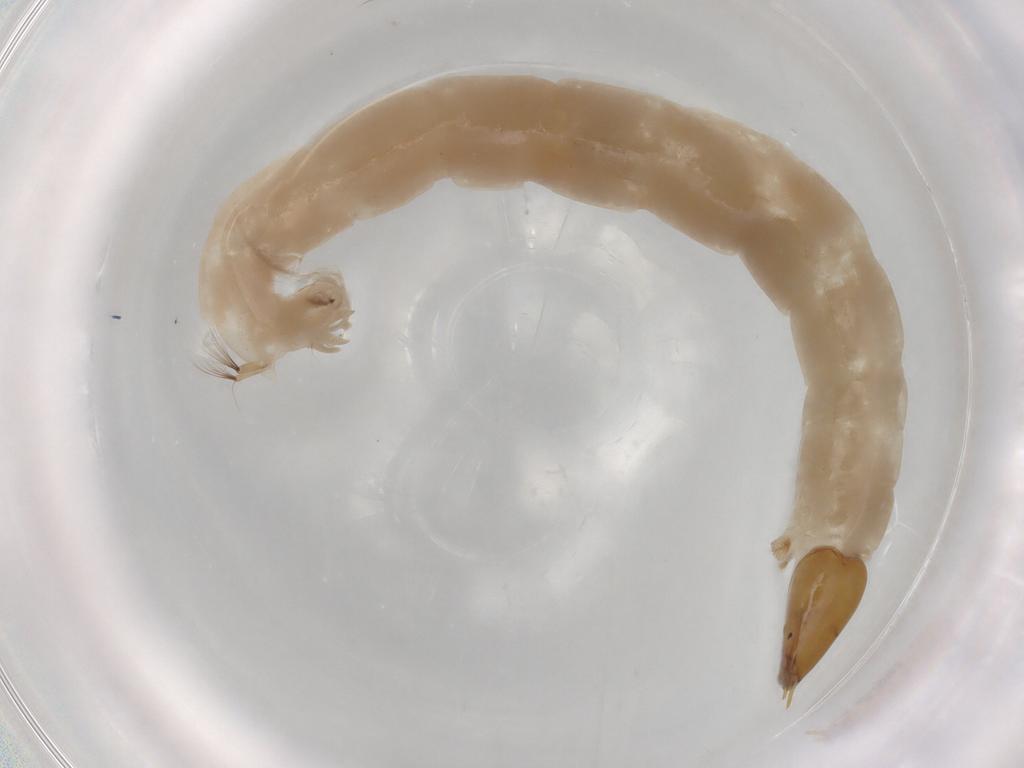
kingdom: Animalia
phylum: Arthropoda
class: Insecta
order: Diptera
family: Chironomidae
